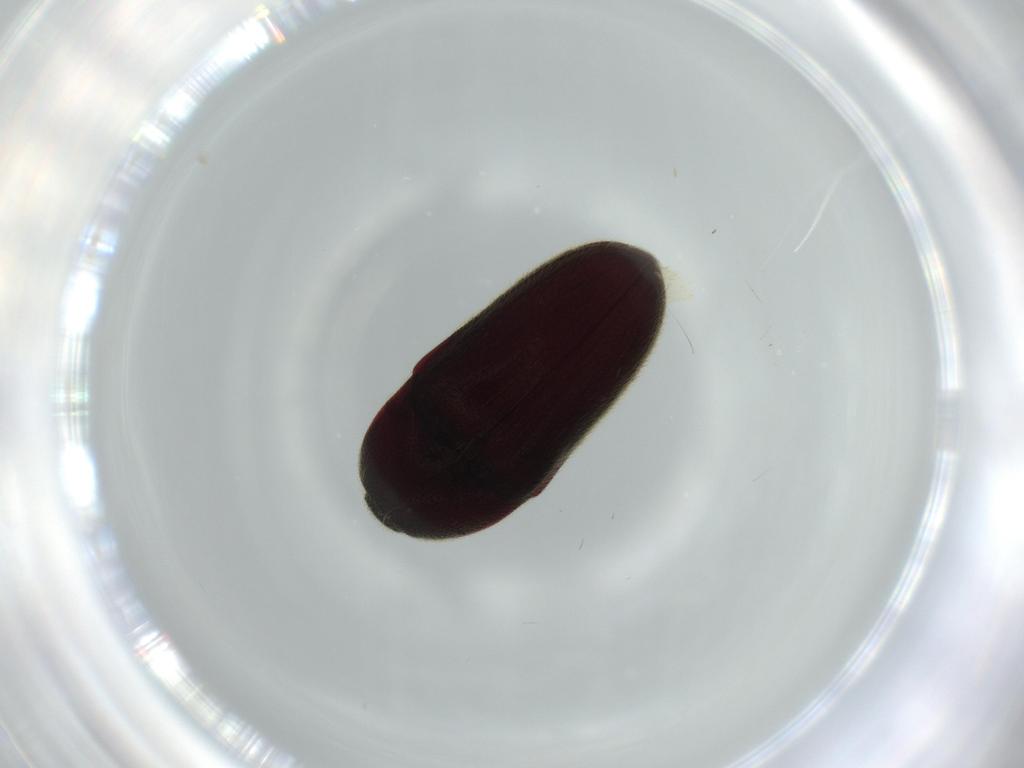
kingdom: Animalia
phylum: Arthropoda
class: Insecta
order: Coleoptera
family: Throscidae
